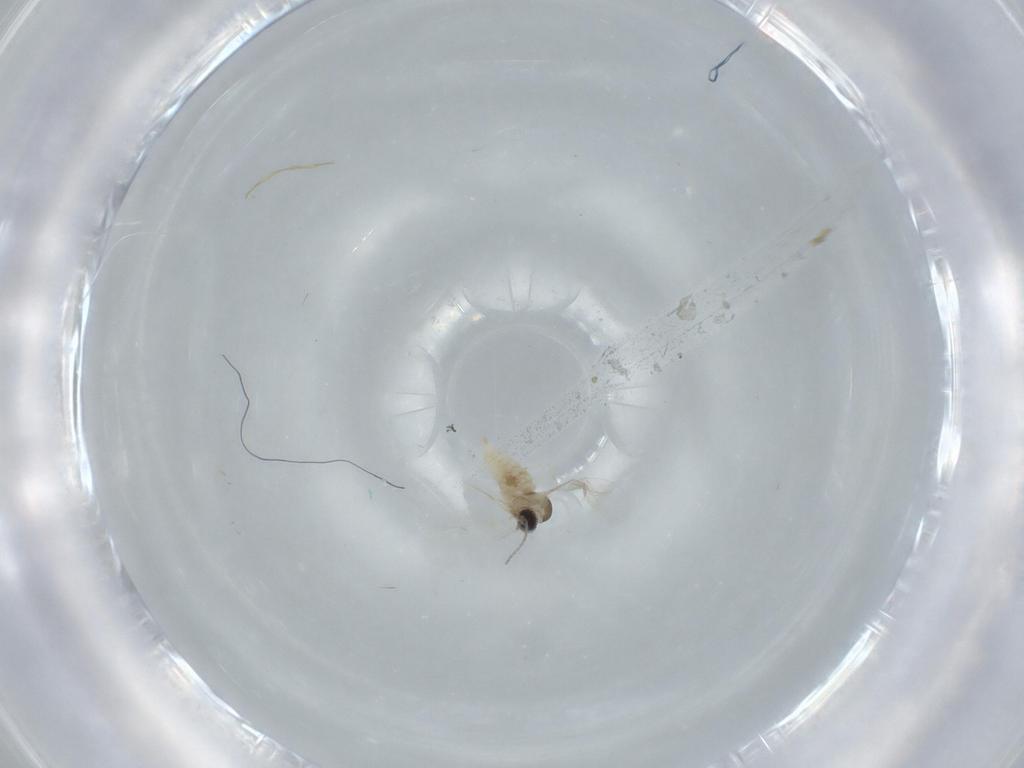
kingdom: Animalia
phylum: Arthropoda
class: Insecta
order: Diptera
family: Cecidomyiidae
